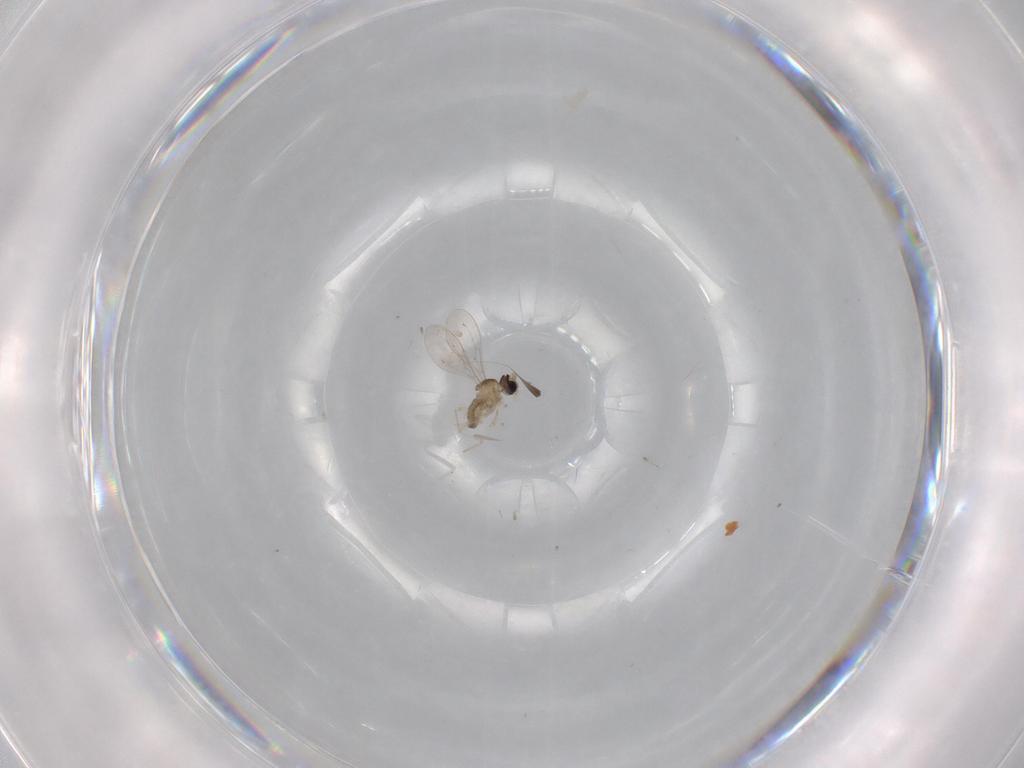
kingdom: Animalia
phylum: Arthropoda
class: Insecta
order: Diptera
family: Cecidomyiidae
